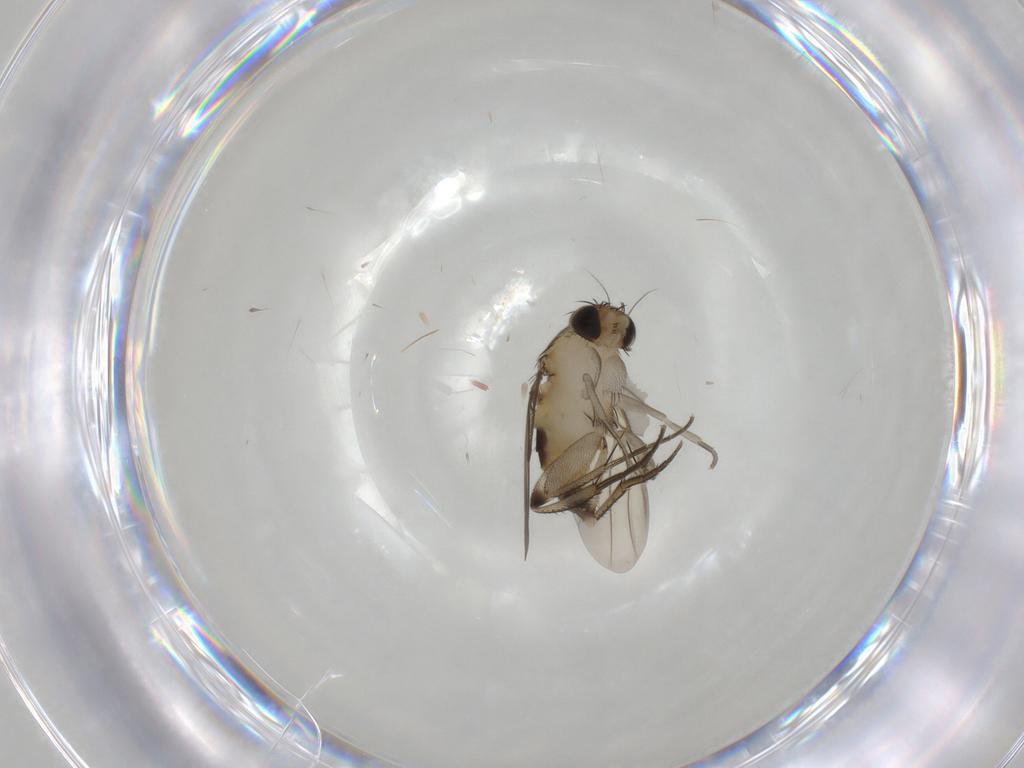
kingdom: Animalia
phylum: Arthropoda
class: Insecta
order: Diptera
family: Phoridae
